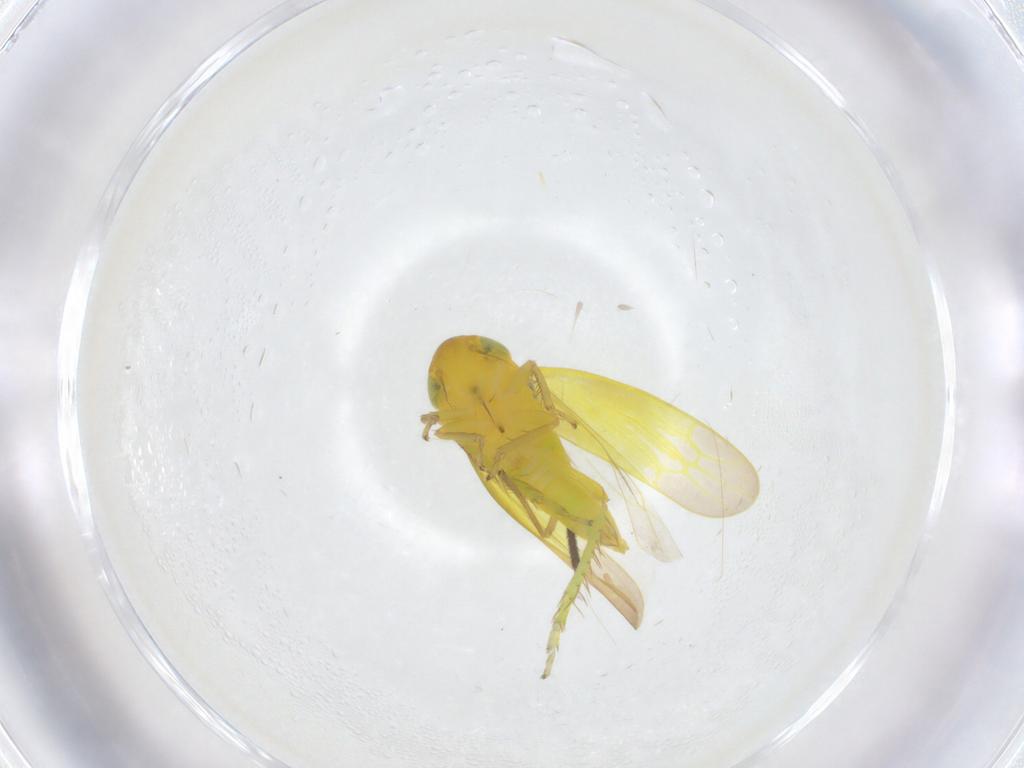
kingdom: Animalia
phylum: Arthropoda
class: Insecta
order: Hemiptera
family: Cicadellidae
